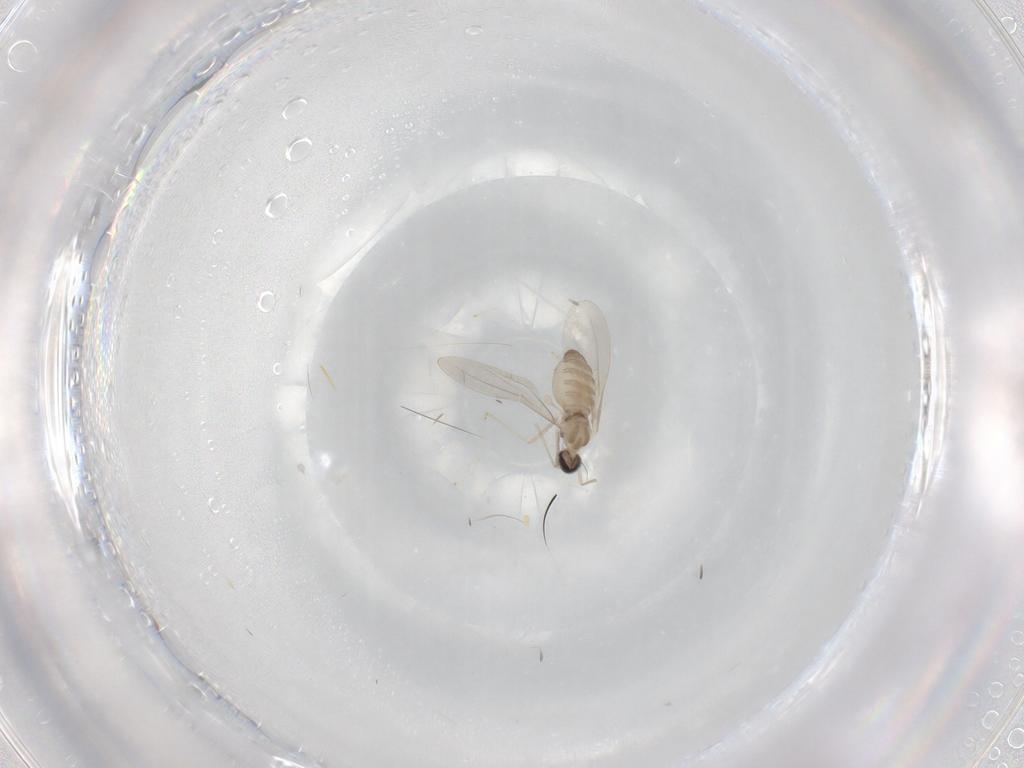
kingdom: Animalia
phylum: Arthropoda
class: Insecta
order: Diptera
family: Cecidomyiidae
